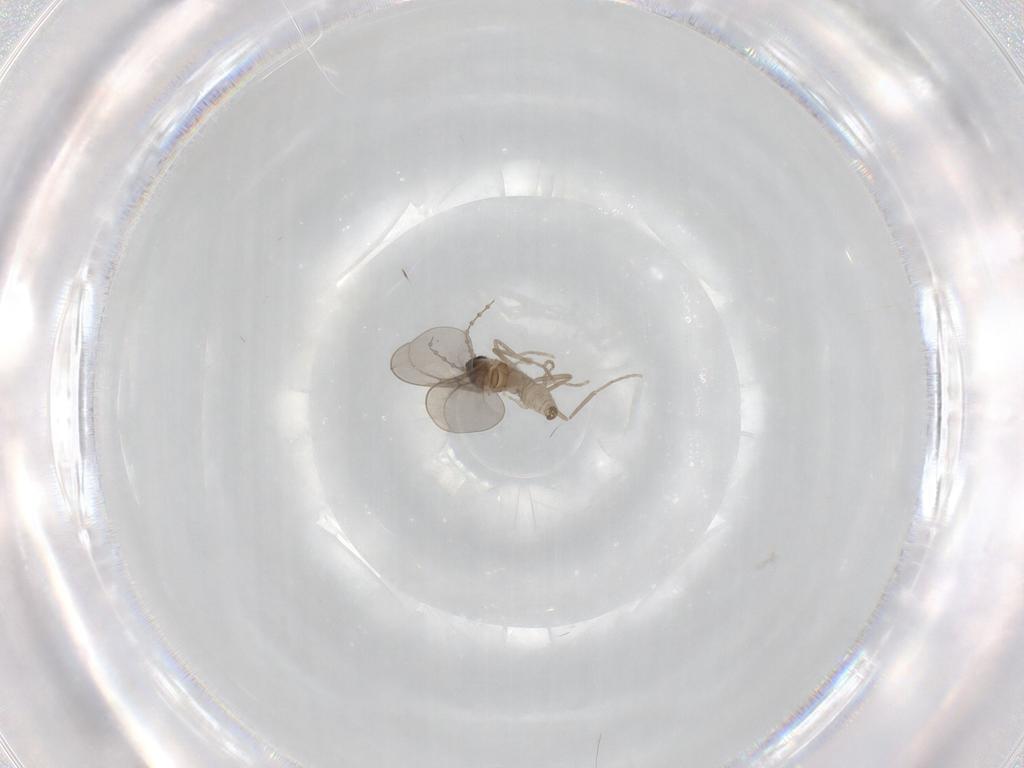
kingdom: Animalia
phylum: Arthropoda
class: Insecta
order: Diptera
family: Cecidomyiidae
